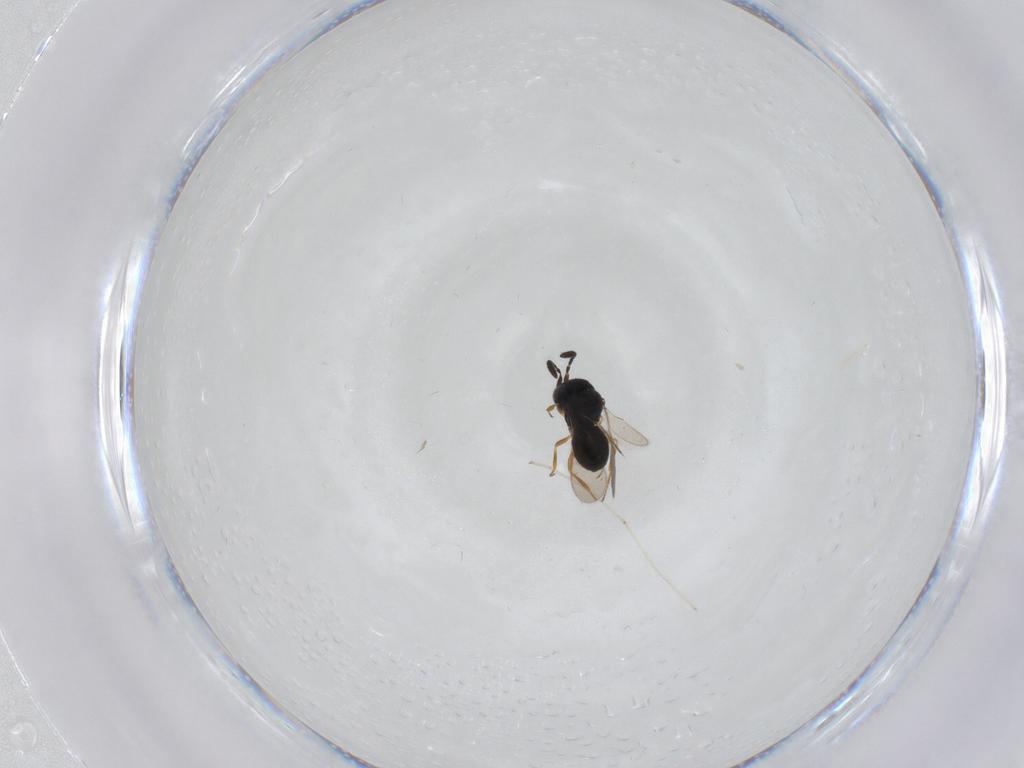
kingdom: Animalia
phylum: Arthropoda
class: Insecta
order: Hymenoptera
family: Scelionidae
